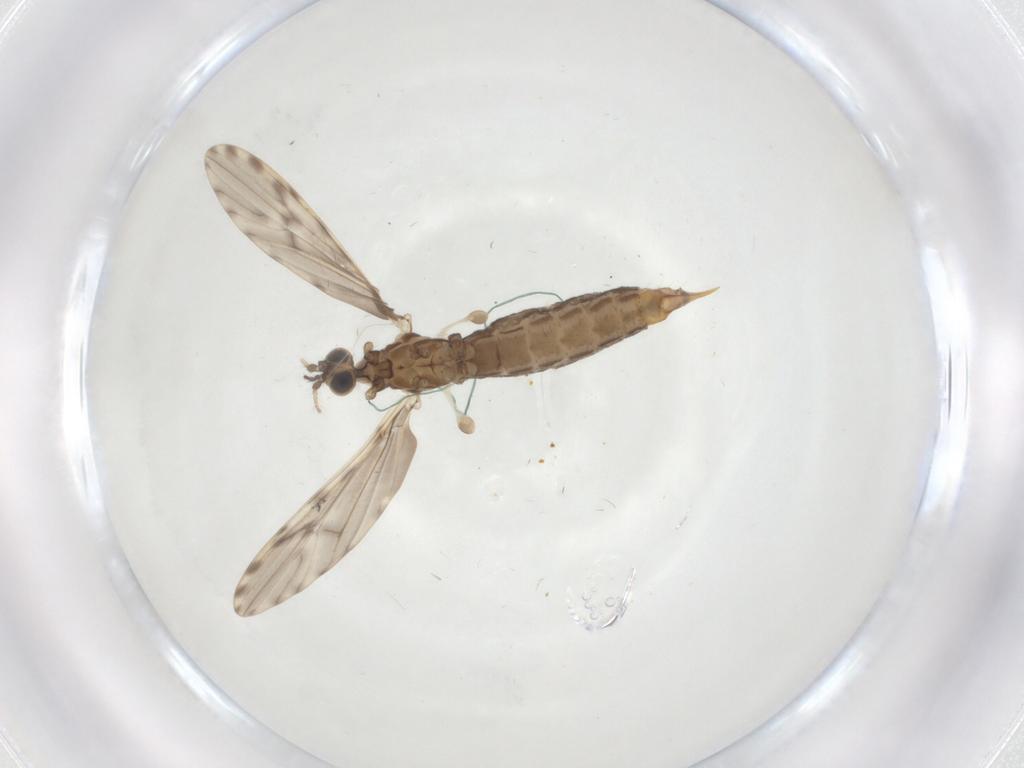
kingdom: Animalia
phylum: Arthropoda
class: Insecta
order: Diptera
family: Limoniidae
